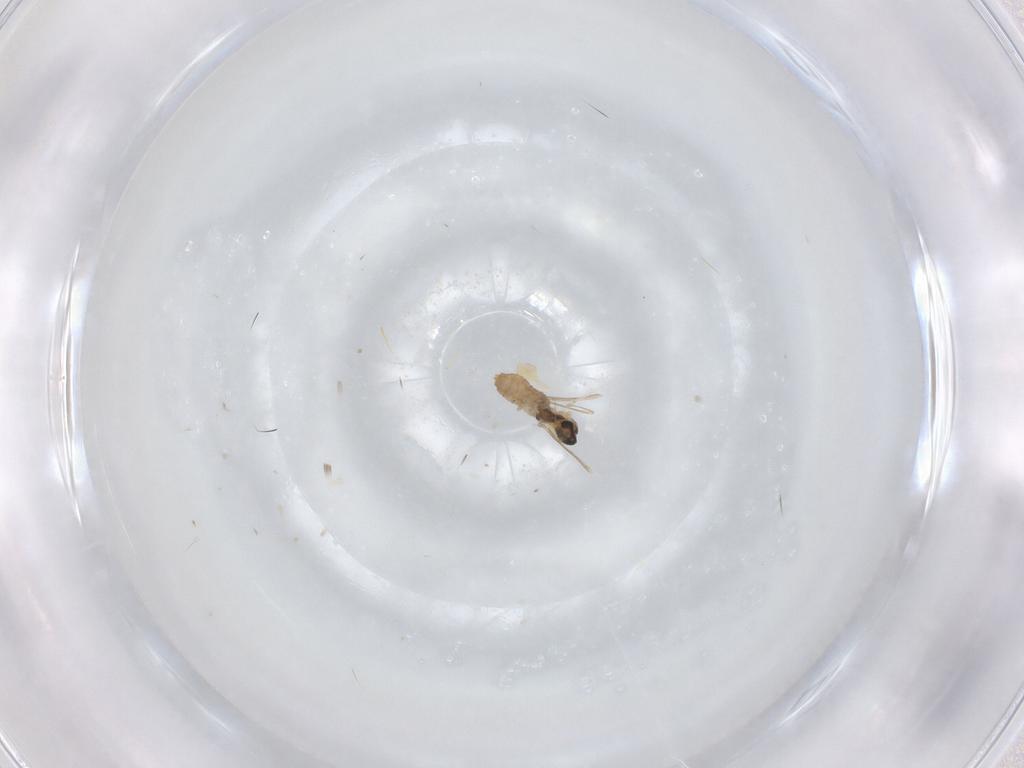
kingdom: Animalia
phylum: Arthropoda
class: Insecta
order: Diptera
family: Cecidomyiidae
